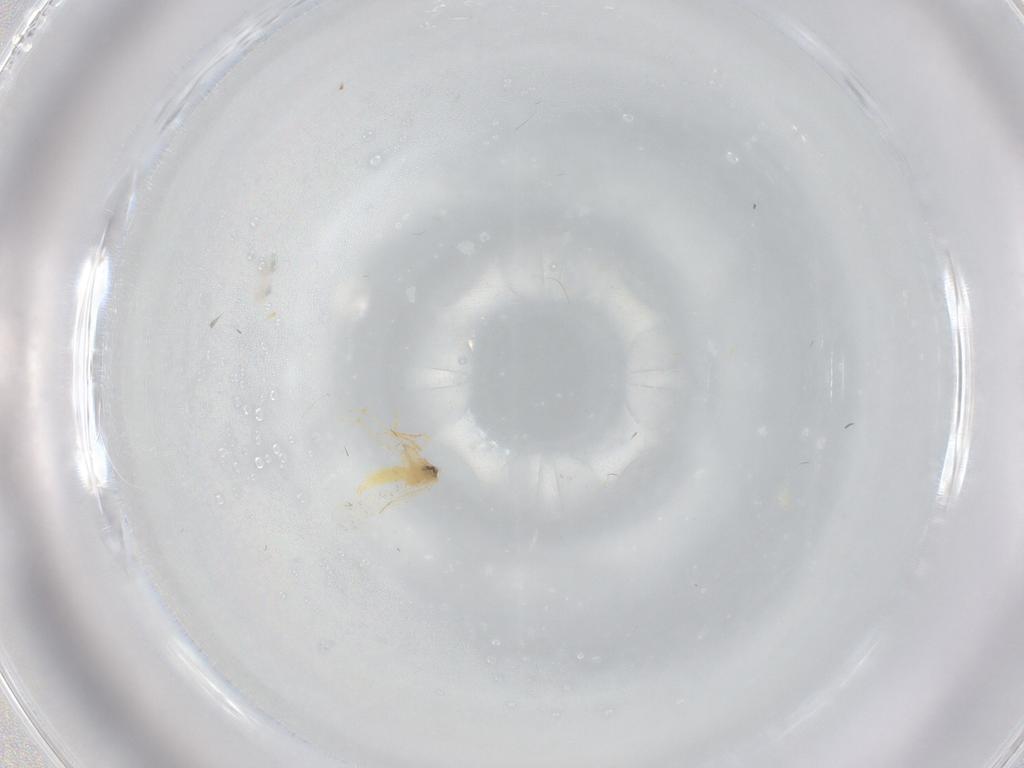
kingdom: Animalia
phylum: Arthropoda
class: Insecta
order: Hemiptera
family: Aleyrodidae
